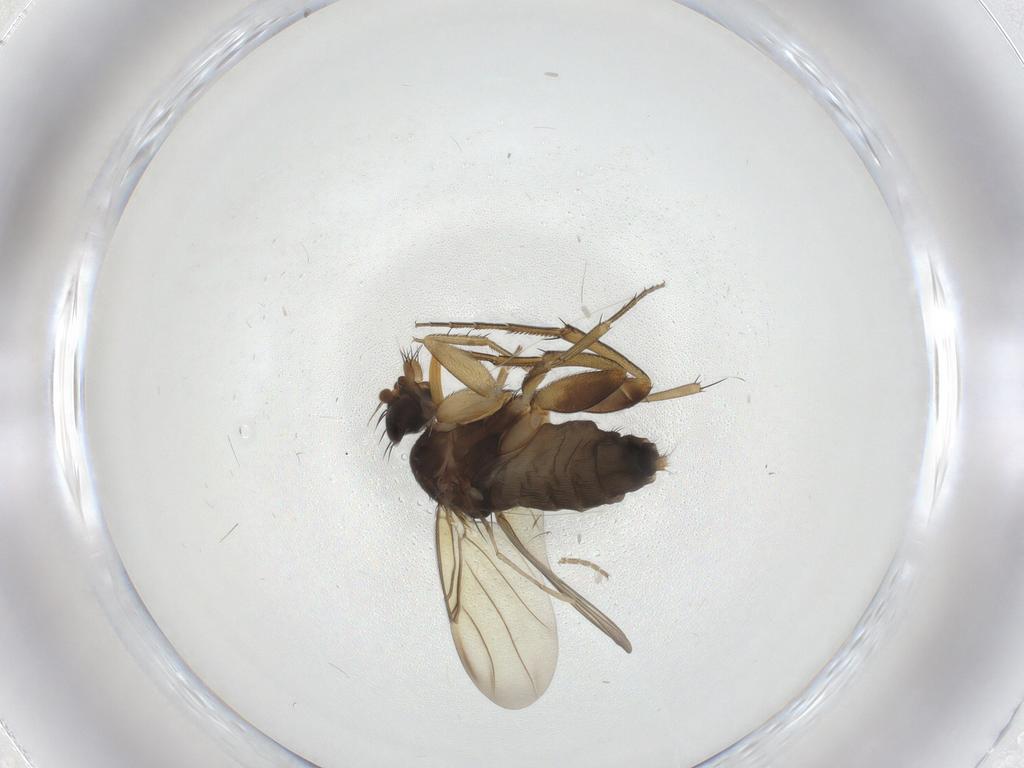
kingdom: Animalia
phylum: Arthropoda
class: Insecta
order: Diptera
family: Phoridae
